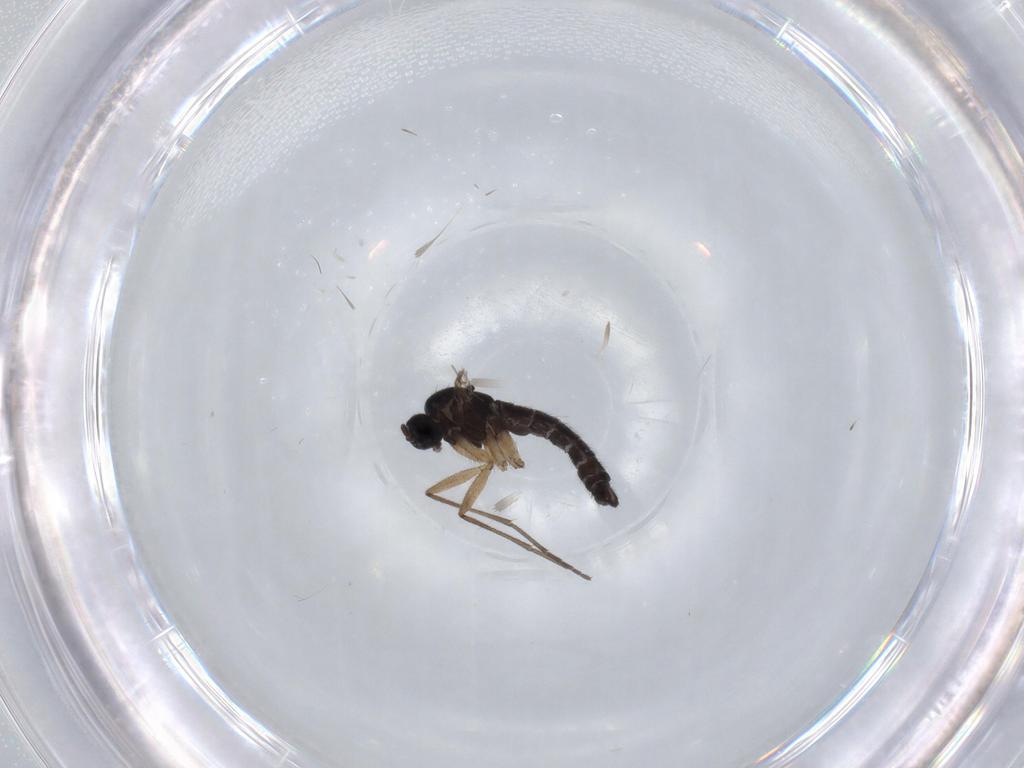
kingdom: Animalia
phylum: Arthropoda
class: Insecta
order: Diptera
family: Sciaridae
